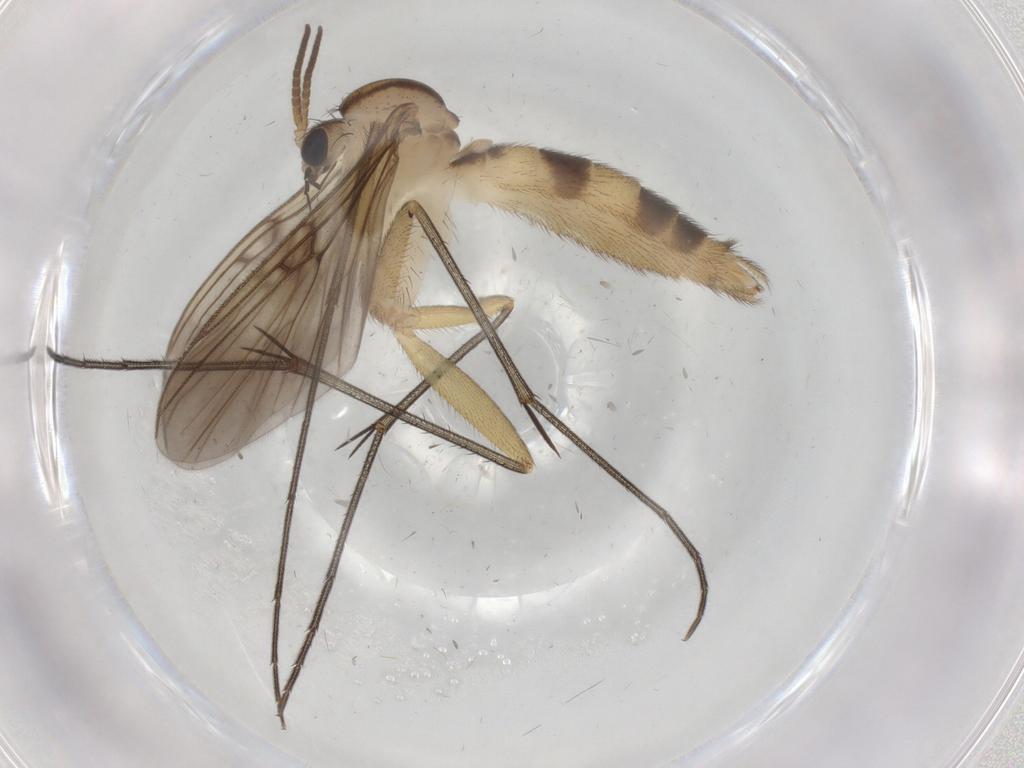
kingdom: Animalia
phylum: Arthropoda
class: Insecta
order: Diptera
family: Chironomidae
